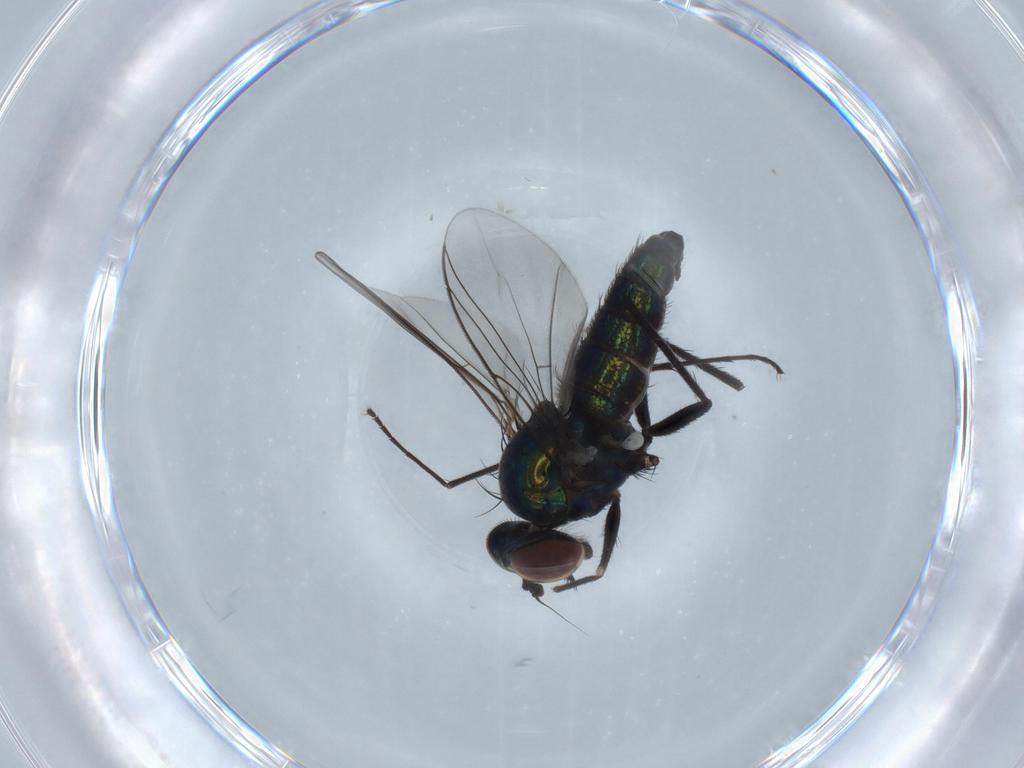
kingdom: Animalia
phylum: Arthropoda
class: Insecta
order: Diptera
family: Dolichopodidae
